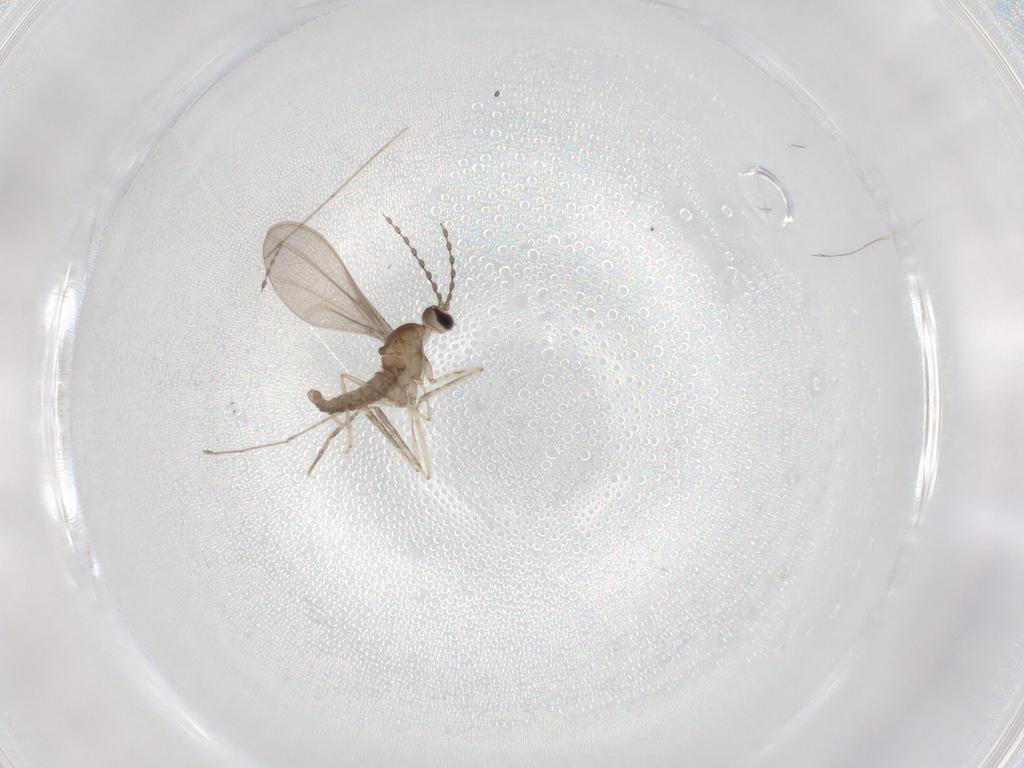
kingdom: Animalia
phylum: Arthropoda
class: Insecta
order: Diptera
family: Cecidomyiidae
